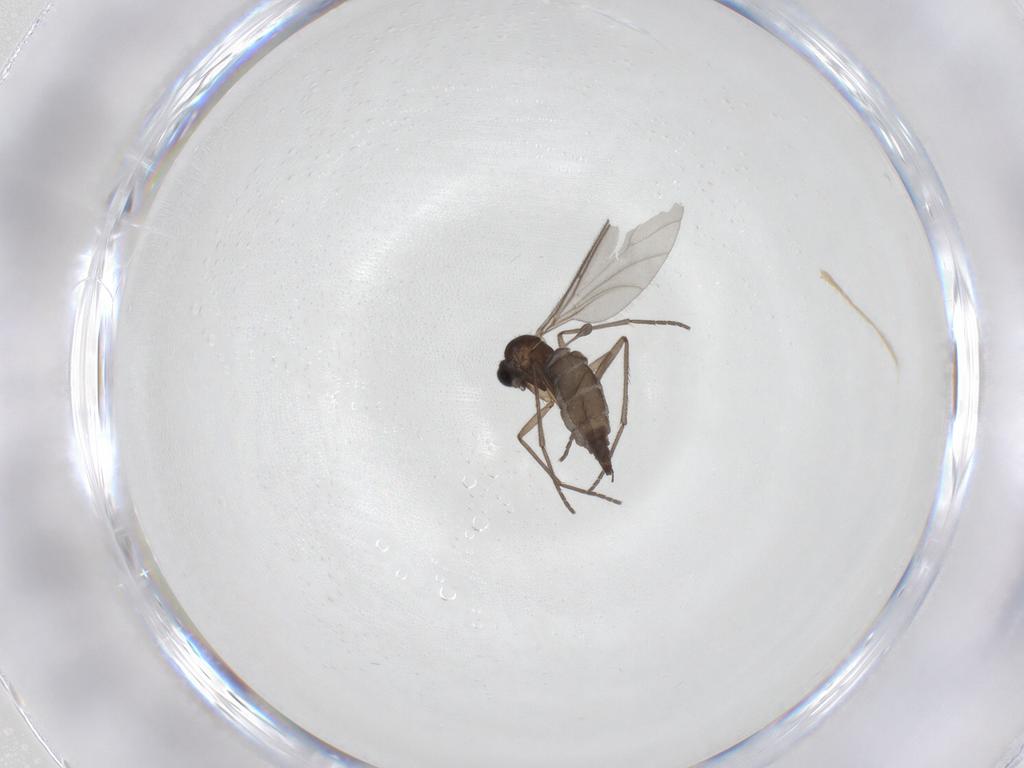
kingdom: Animalia
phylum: Arthropoda
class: Insecta
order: Diptera
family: Sciaridae
